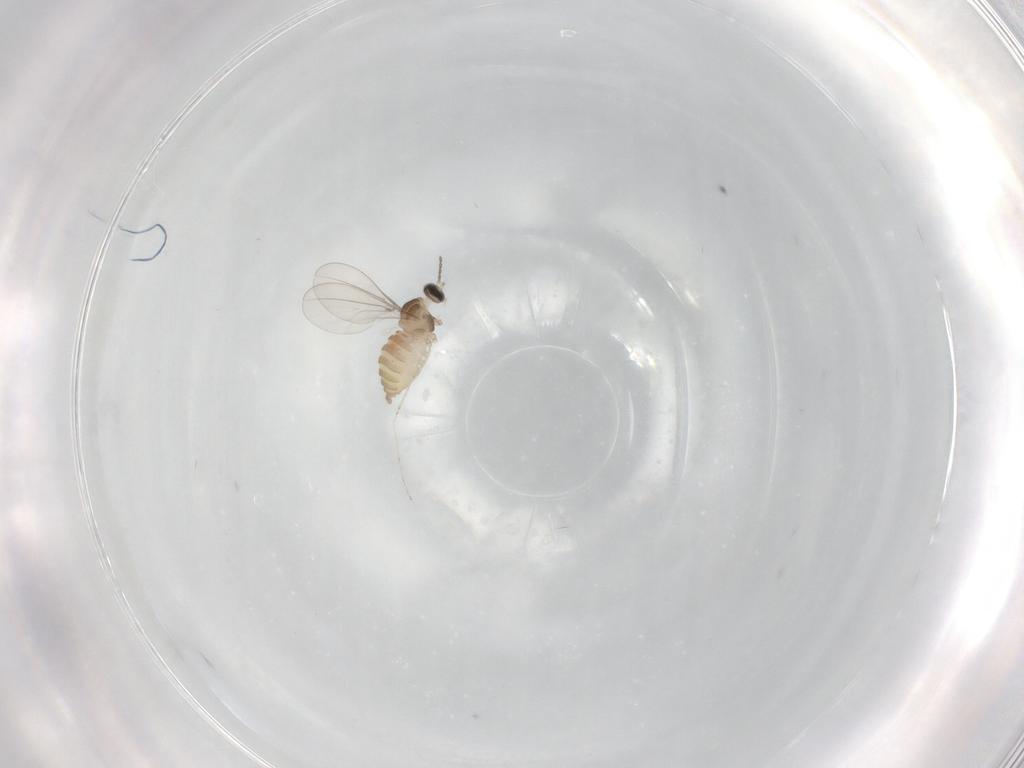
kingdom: Animalia
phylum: Arthropoda
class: Insecta
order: Diptera
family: Cecidomyiidae
